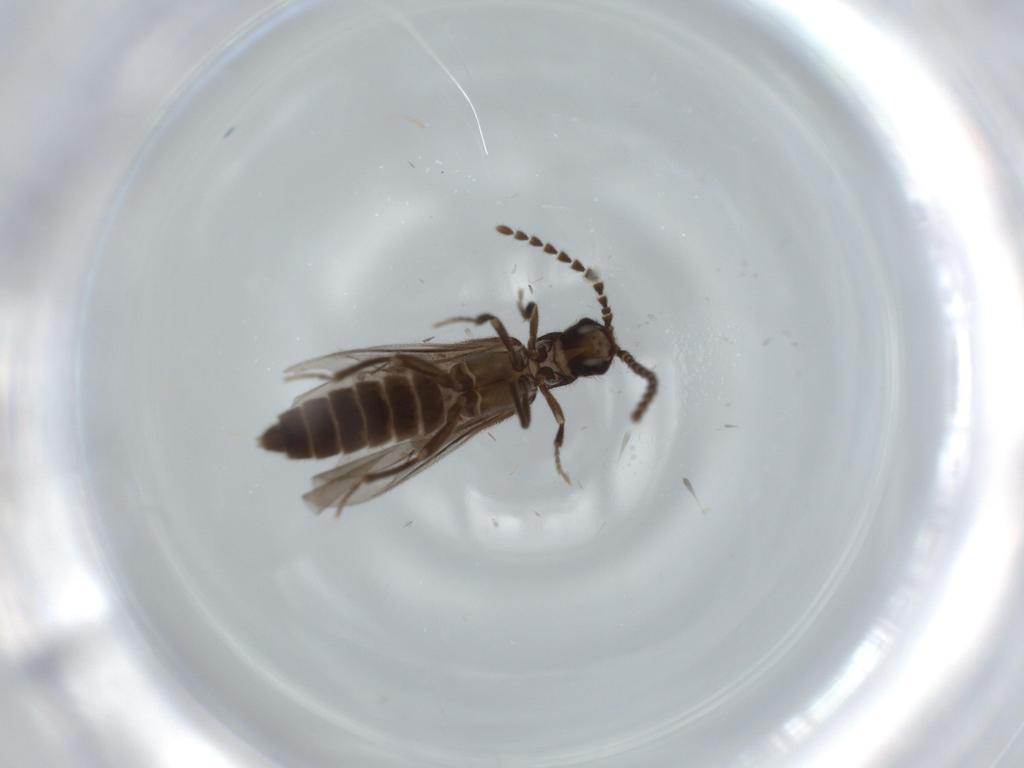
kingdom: Animalia
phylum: Arthropoda
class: Insecta
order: Coleoptera
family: Omethidae
